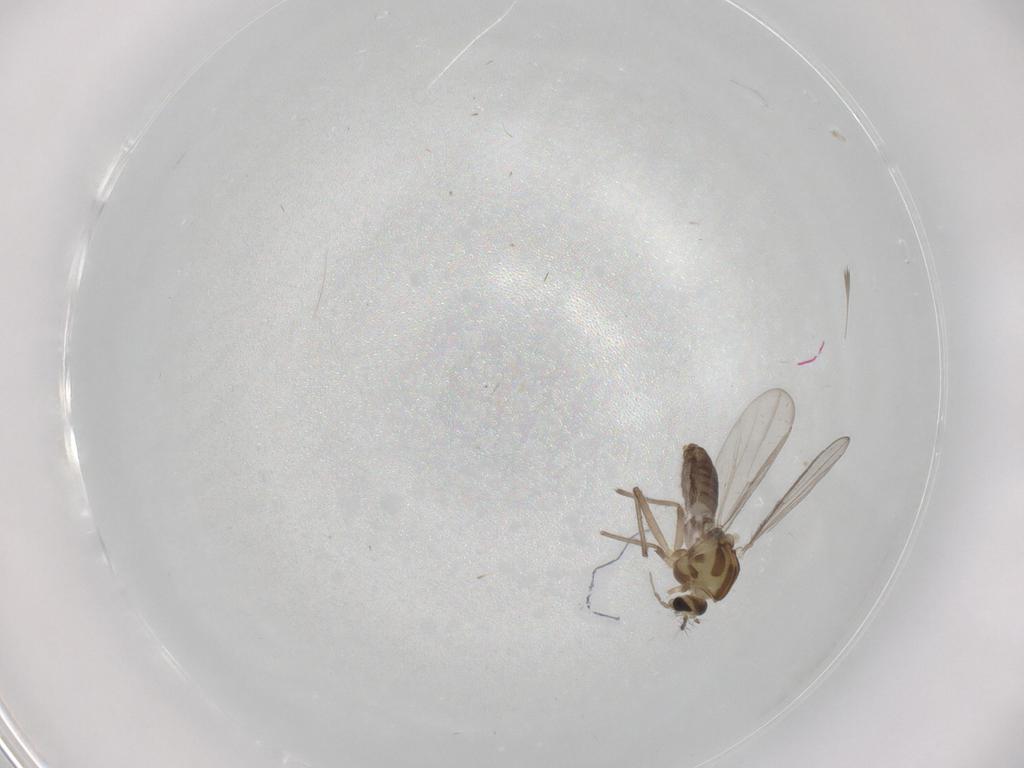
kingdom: Animalia
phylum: Arthropoda
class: Insecta
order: Diptera
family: Chironomidae
